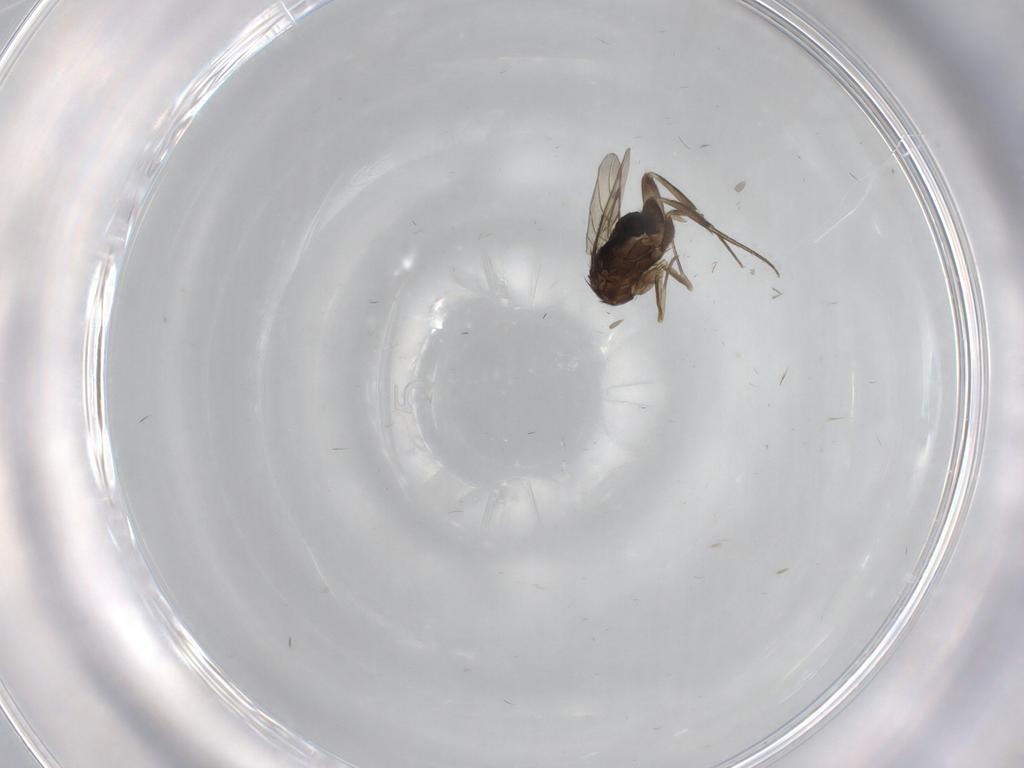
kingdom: Animalia
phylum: Arthropoda
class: Insecta
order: Diptera
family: Phoridae
